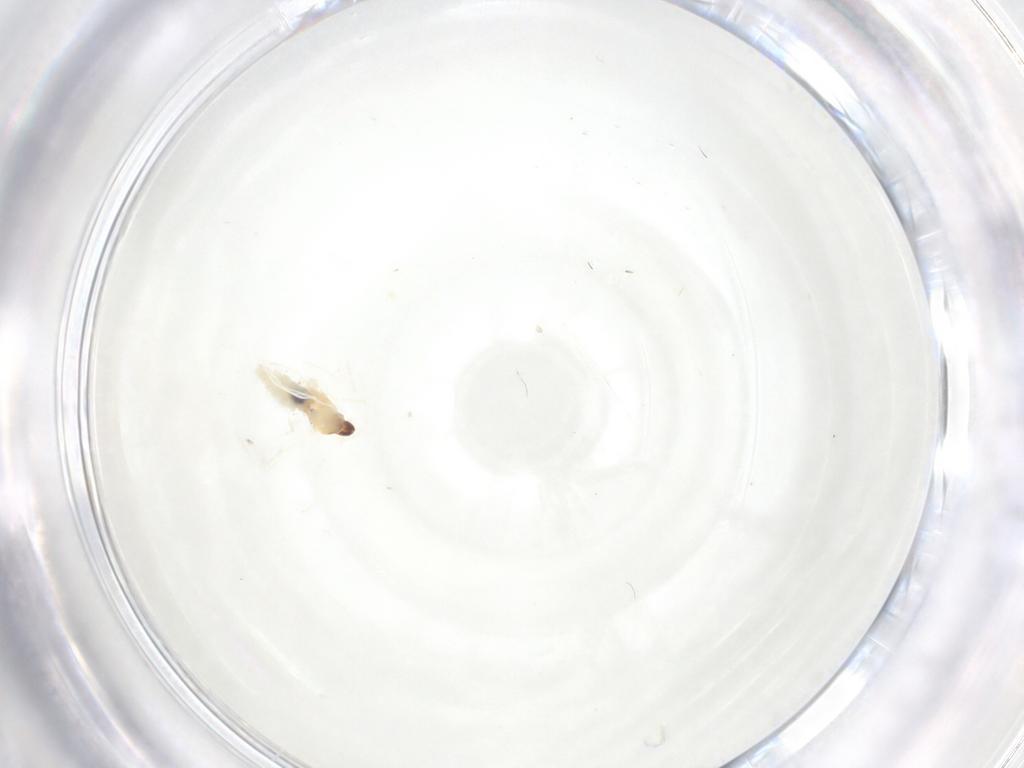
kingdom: Animalia
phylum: Arthropoda
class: Insecta
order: Diptera
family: Cecidomyiidae
